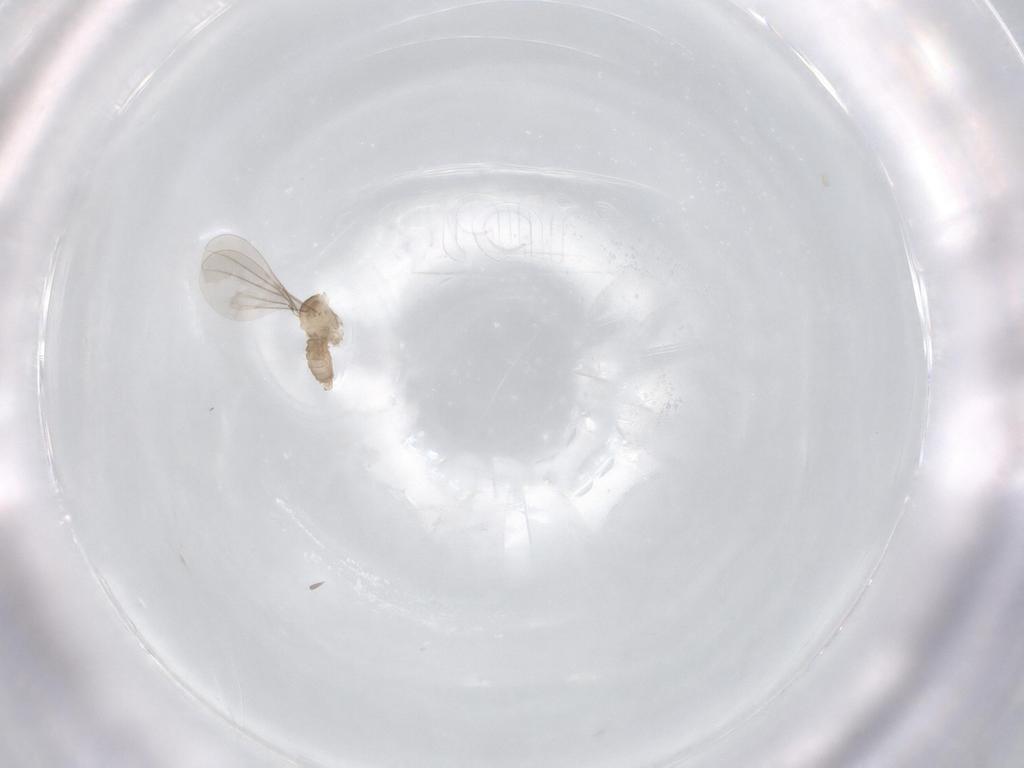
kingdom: Animalia
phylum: Arthropoda
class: Insecta
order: Diptera
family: Cecidomyiidae
